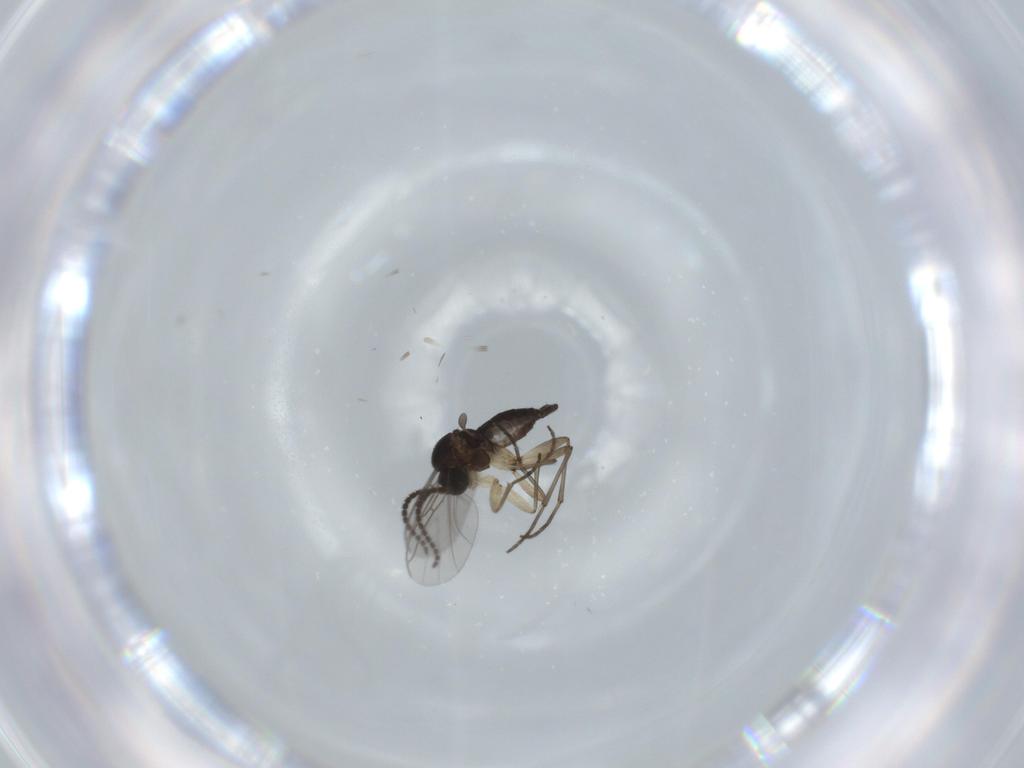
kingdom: Animalia
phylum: Arthropoda
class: Insecta
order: Diptera
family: Sciaridae
